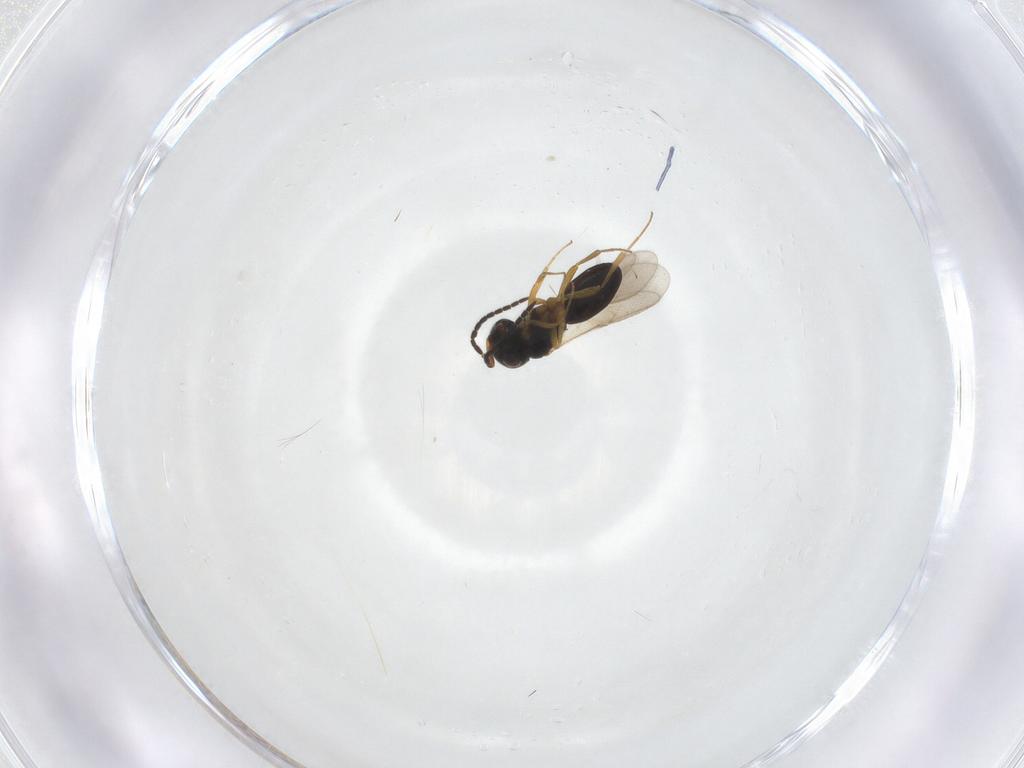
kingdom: Animalia
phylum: Arthropoda
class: Insecta
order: Hymenoptera
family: Scelionidae
